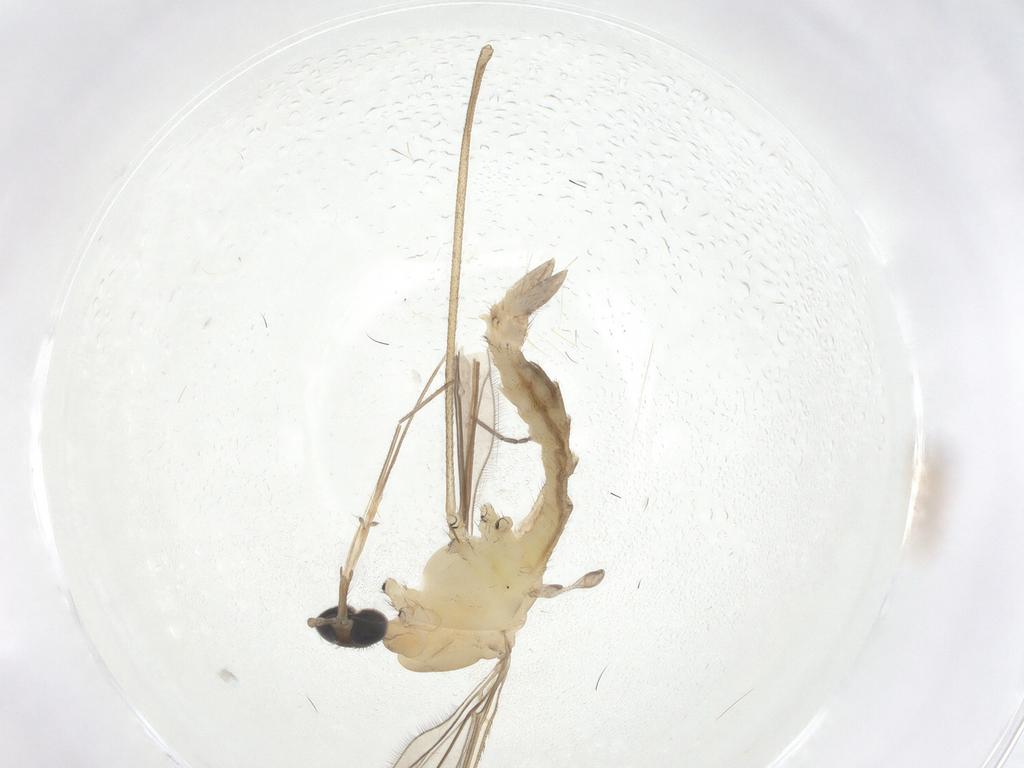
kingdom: Animalia
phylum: Arthropoda
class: Insecta
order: Diptera
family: Limoniidae
